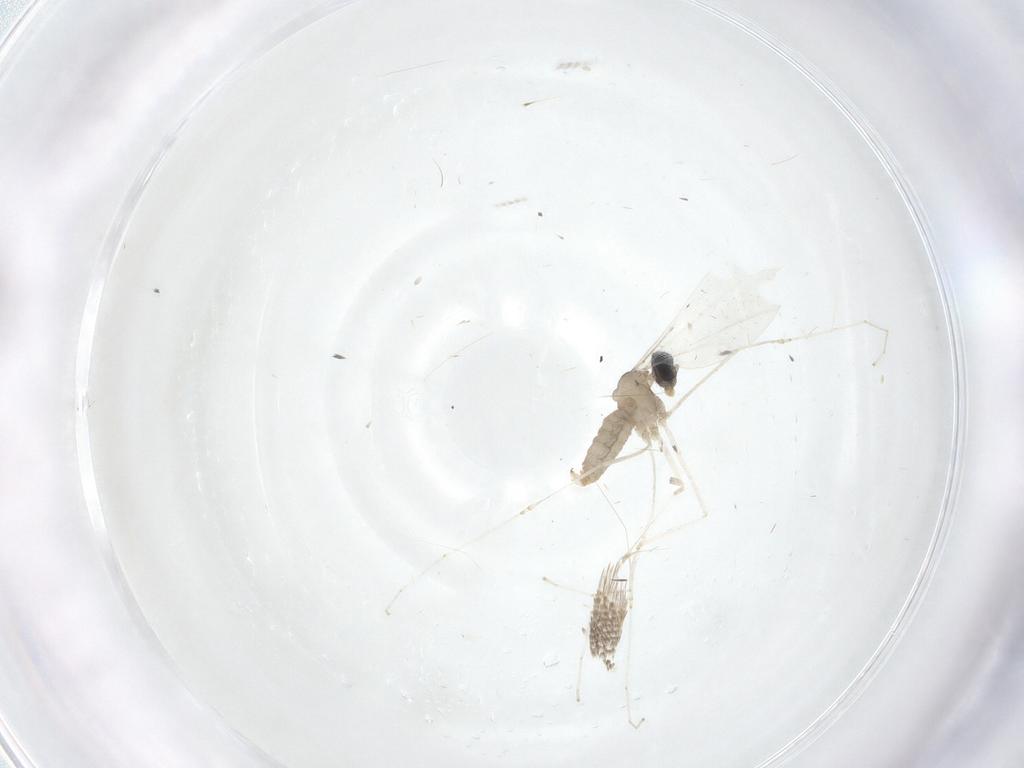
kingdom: Animalia
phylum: Arthropoda
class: Insecta
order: Diptera
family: Cecidomyiidae
